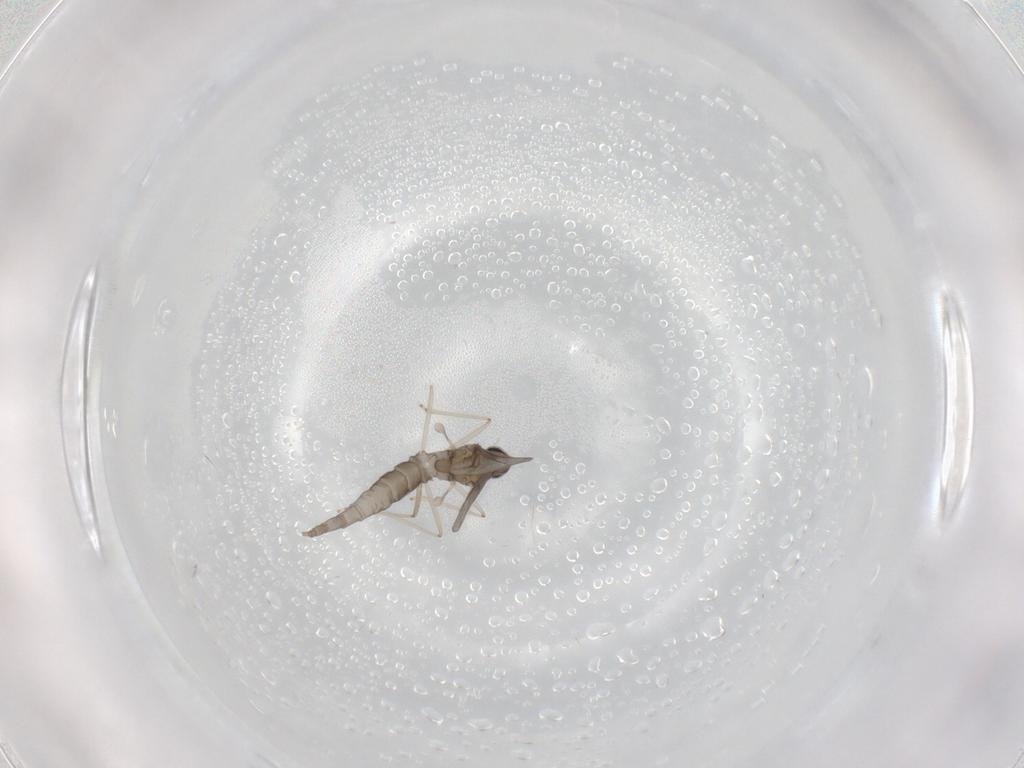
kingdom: Animalia
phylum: Arthropoda
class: Insecta
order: Diptera
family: Cecidomyiidae
